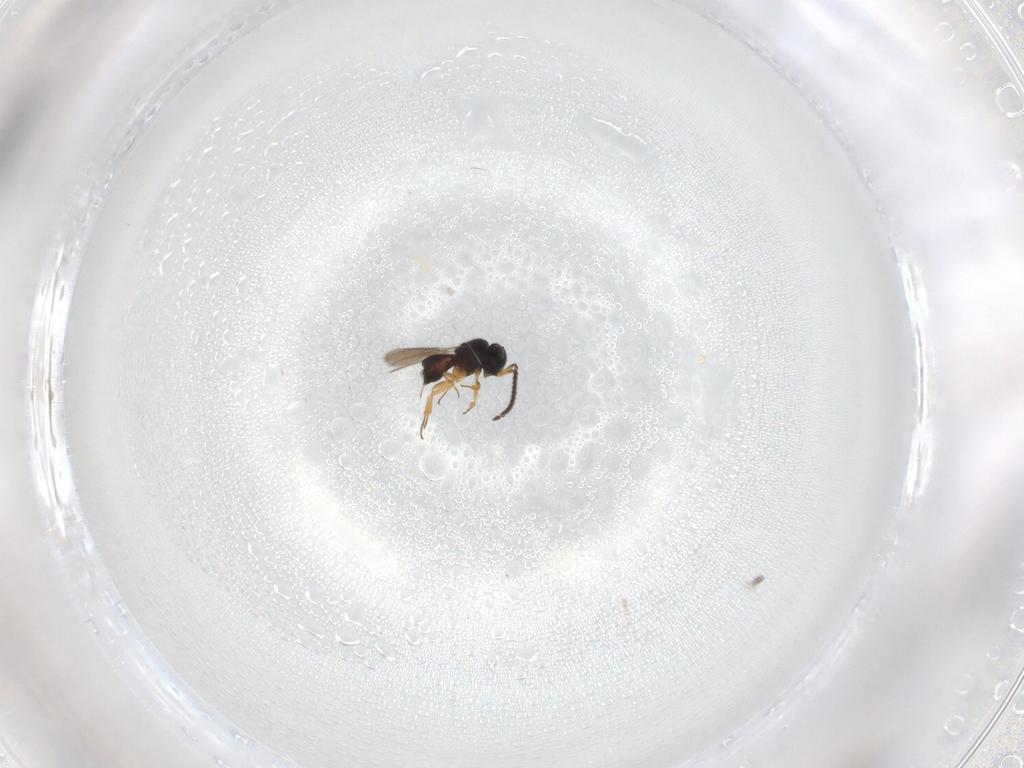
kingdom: Animalia
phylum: Arthropoda
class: Insecta
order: Hymenoptera
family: Scelionidae
